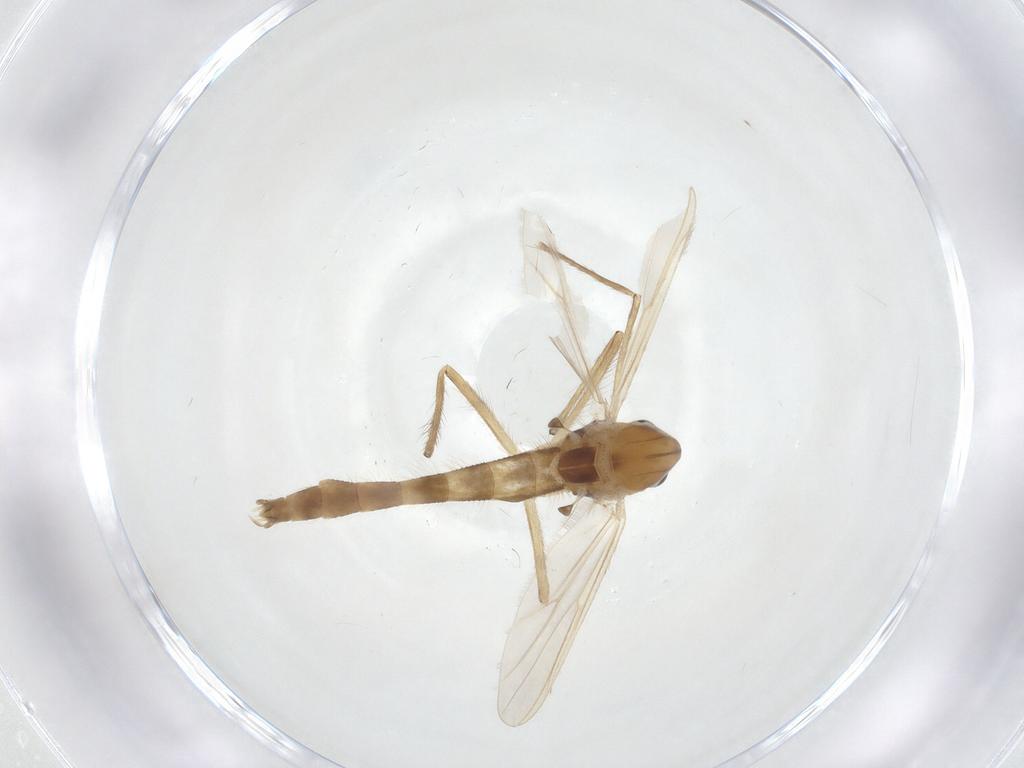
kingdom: Animalia
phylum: Arthropoda
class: Insecta
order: Diptera
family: Chironomidae
